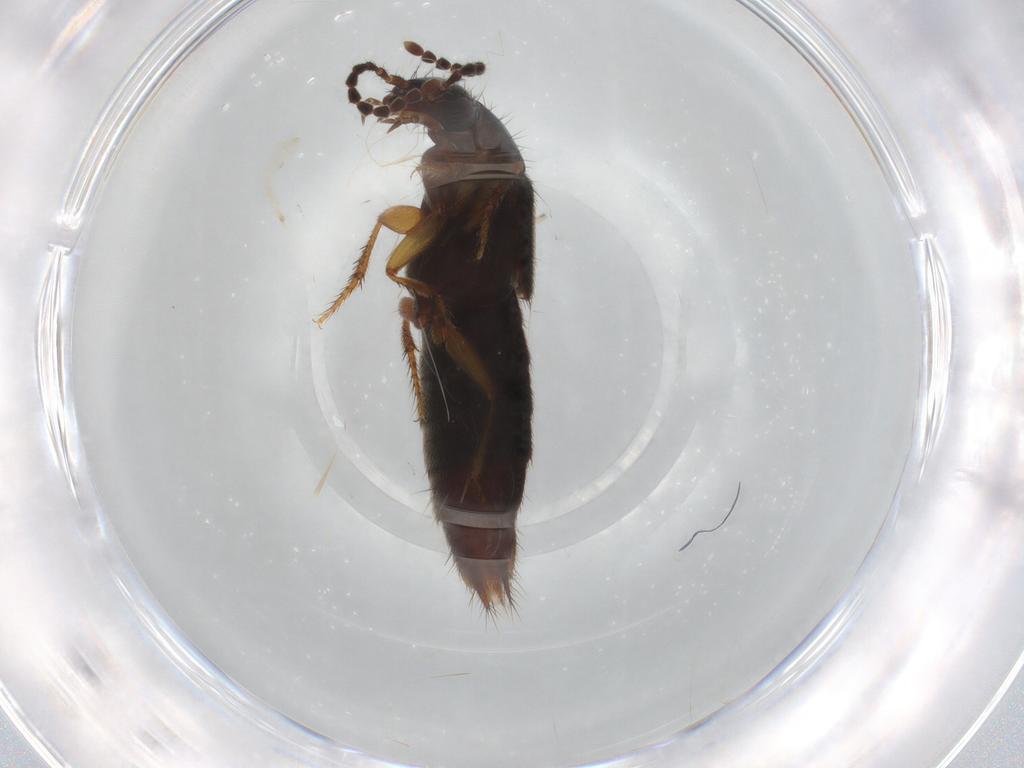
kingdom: Animalia
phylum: Arthropoda
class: Insecta
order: Coleoptera
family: Staphylinidae
